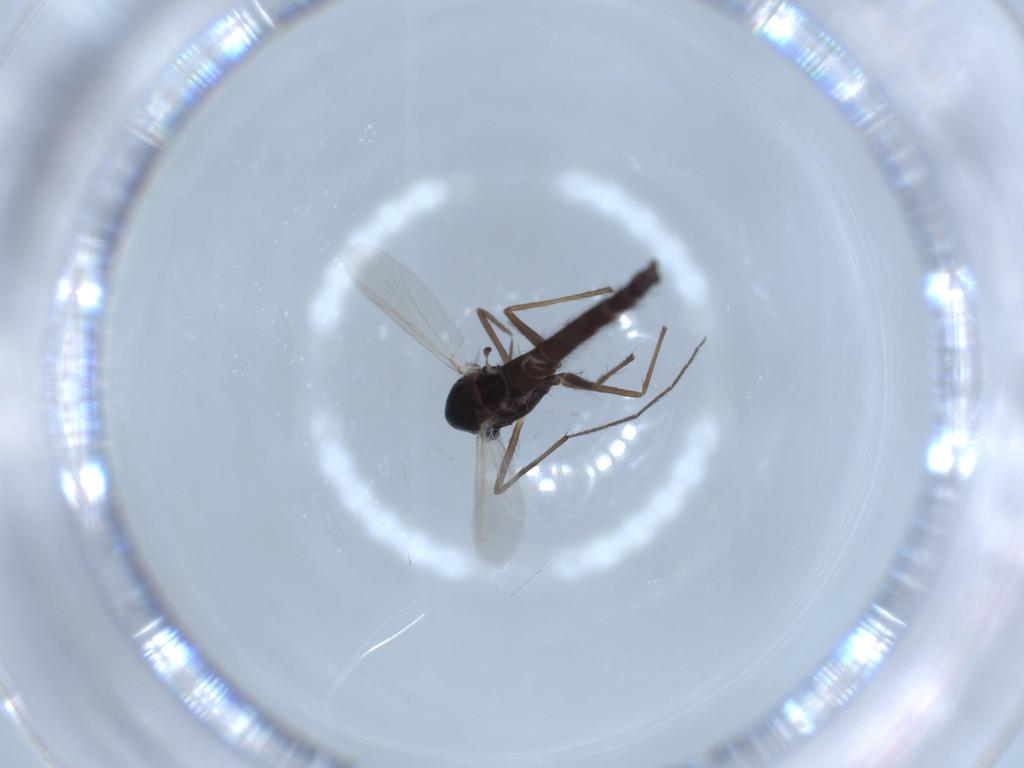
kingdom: Animalia
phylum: Arthropoda
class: Insecta
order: Diptera
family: Chironomidae
